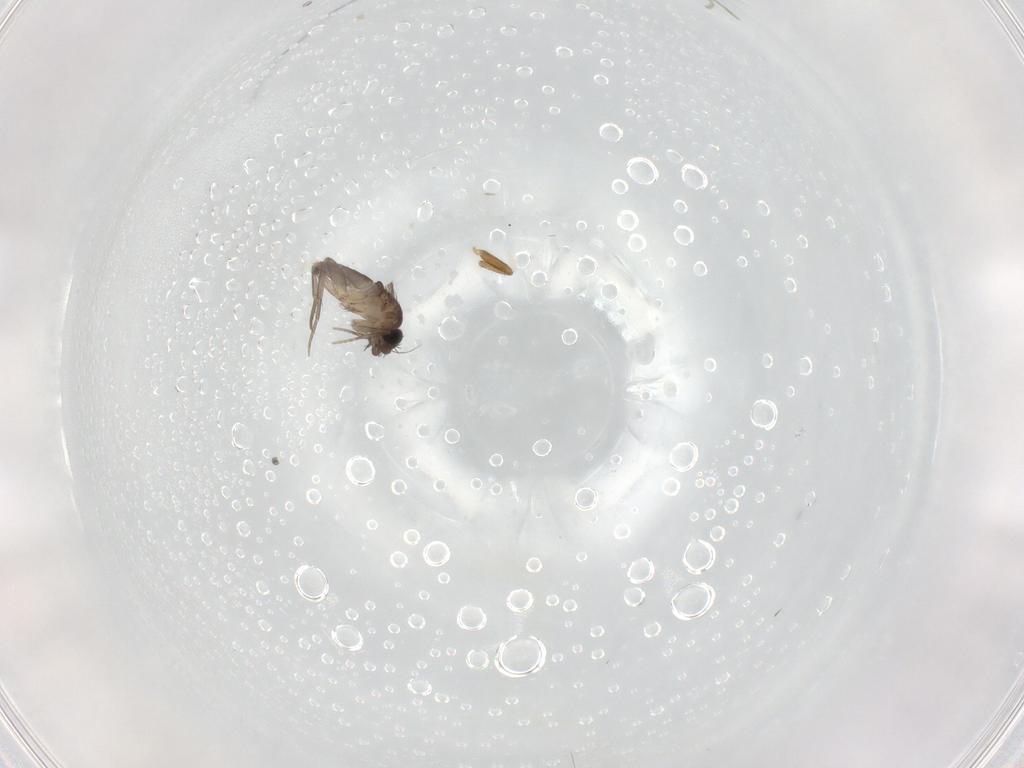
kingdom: Animalia
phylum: Arthropoda
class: Insecta
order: Diptera
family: Phoridae
